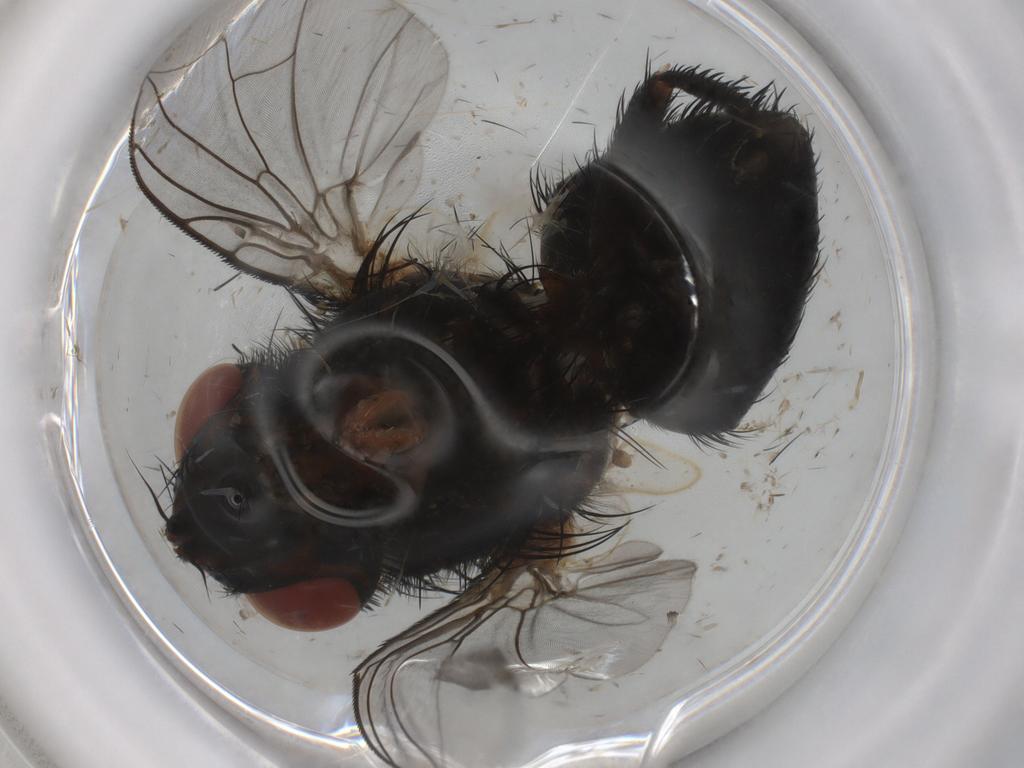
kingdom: Animalia
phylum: Arthropoda
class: Insecta
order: Diptera
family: Tachinidae
